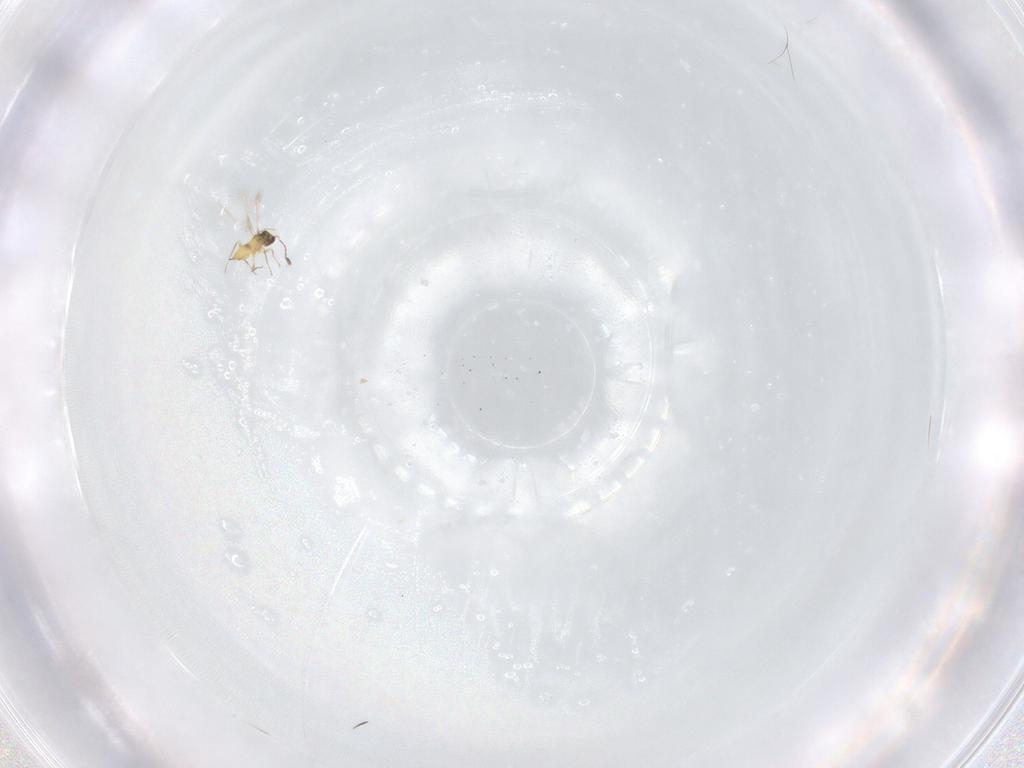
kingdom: Animalia
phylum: Arthropoda
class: Insecta
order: Hymenoptera
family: Mymaridae
